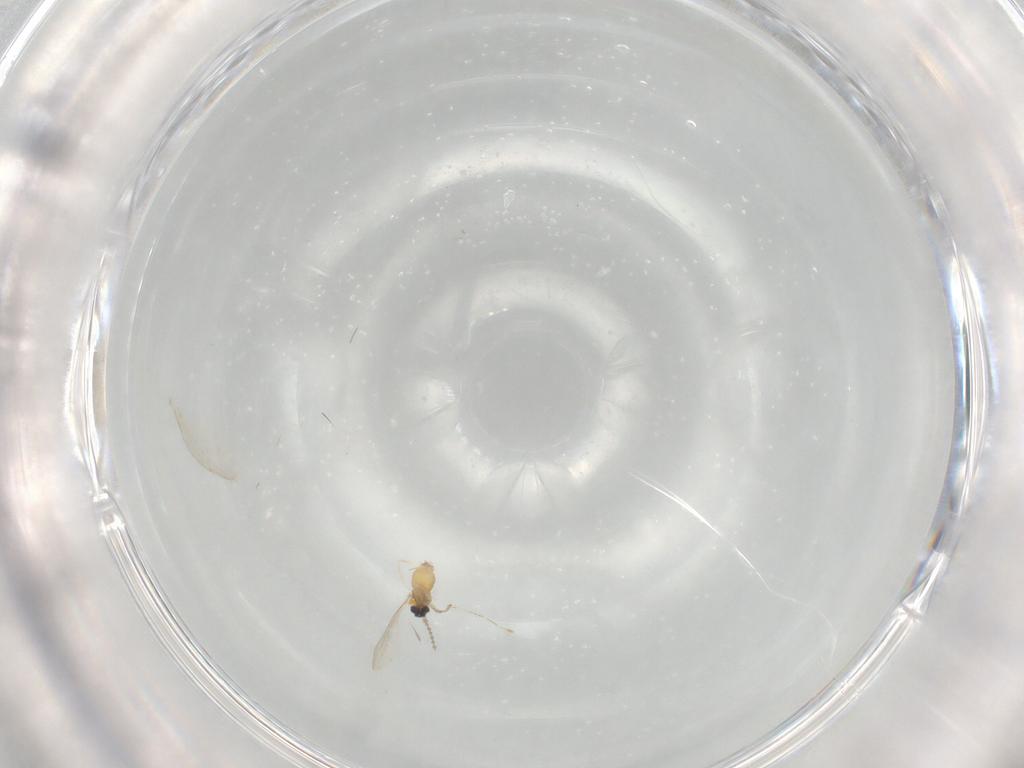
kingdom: Animalia
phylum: Arthropoda
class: Insecta
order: Diptera
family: Cecidomyiidae
